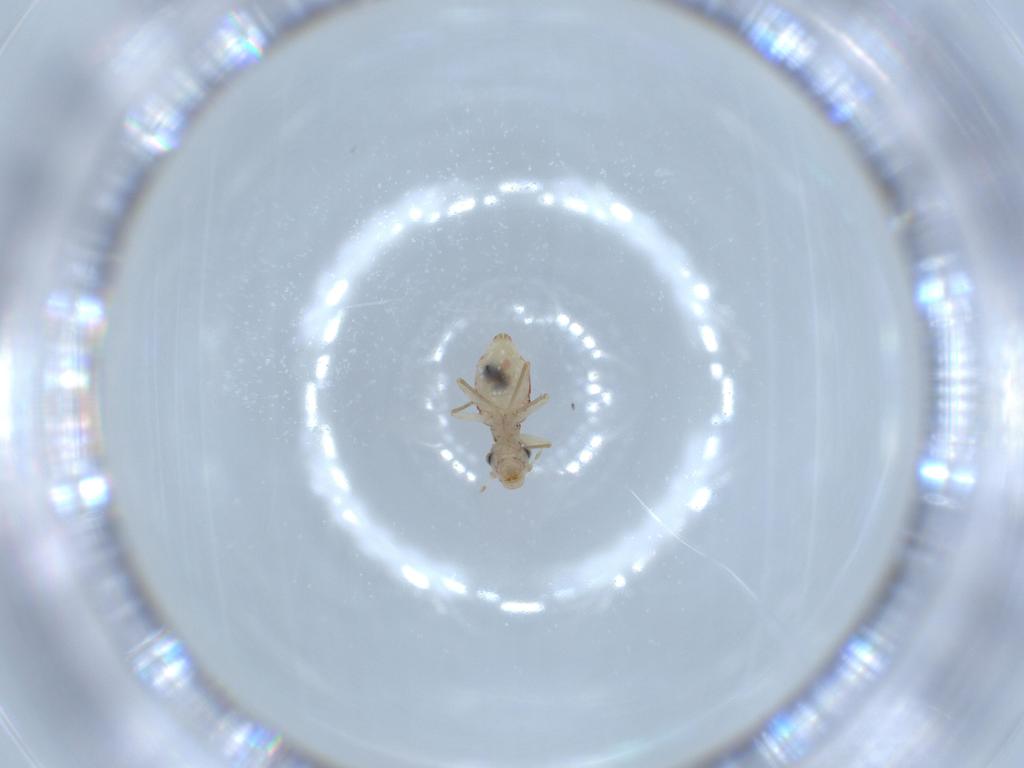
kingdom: Animalia
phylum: Arthropoda
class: Insecta
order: Psocodea
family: Lepidopsocidae
